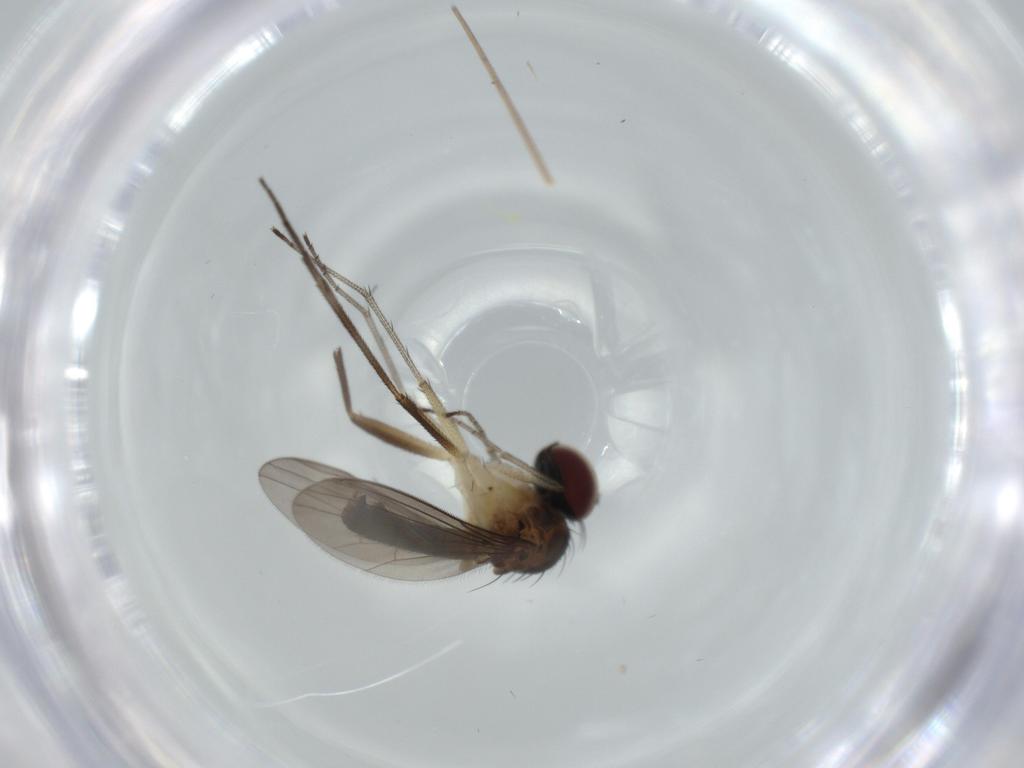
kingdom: Animalia
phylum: Arthropoda
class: Insecta
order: Diptera
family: Dolichopodidae
